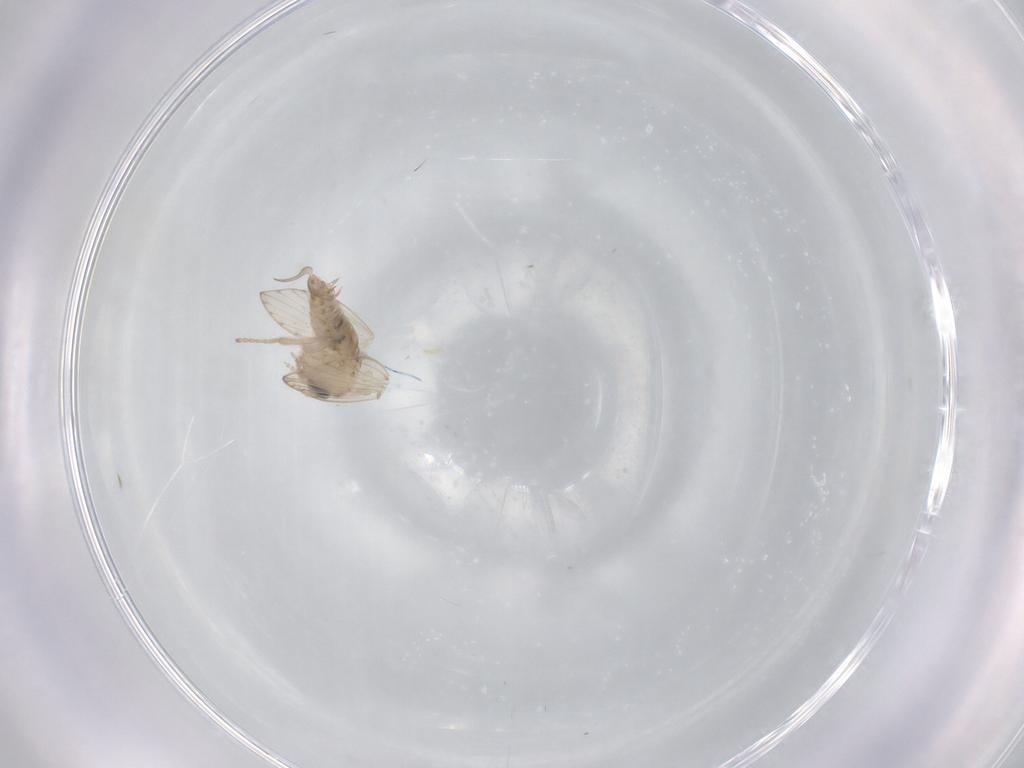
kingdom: Animalia
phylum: Arthropoda
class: Insecta
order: Diptera
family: Psychodidae
